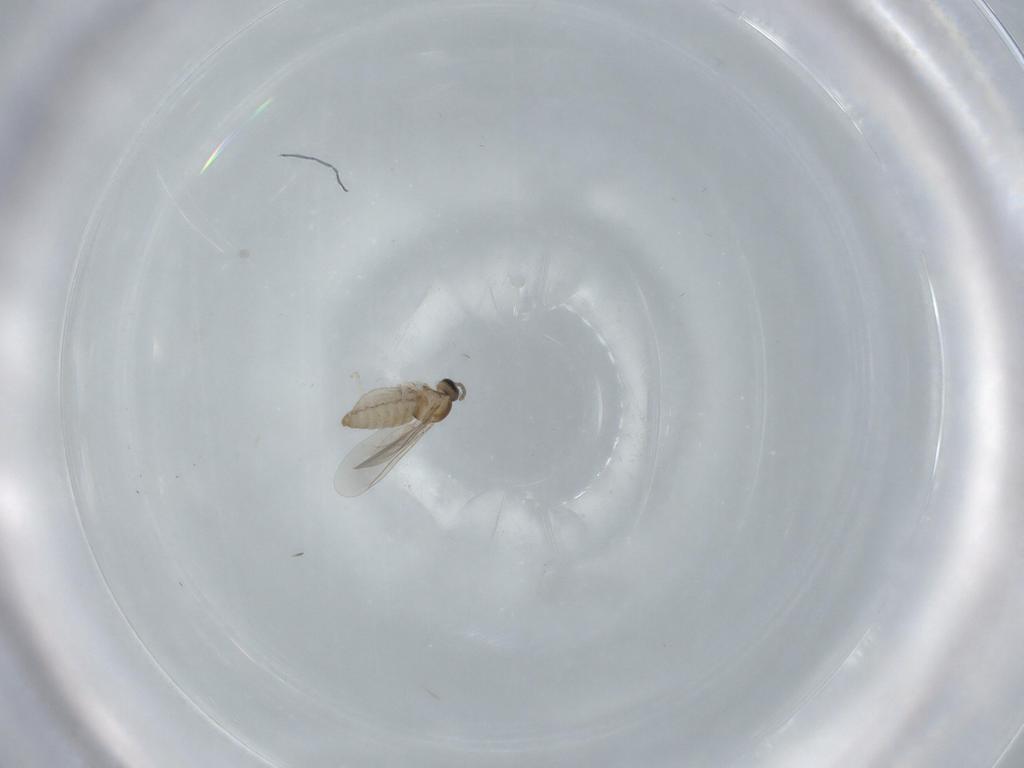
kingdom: Animalia
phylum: Arthropoda
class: Insecta
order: Diptera
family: Cecidomyiidae
